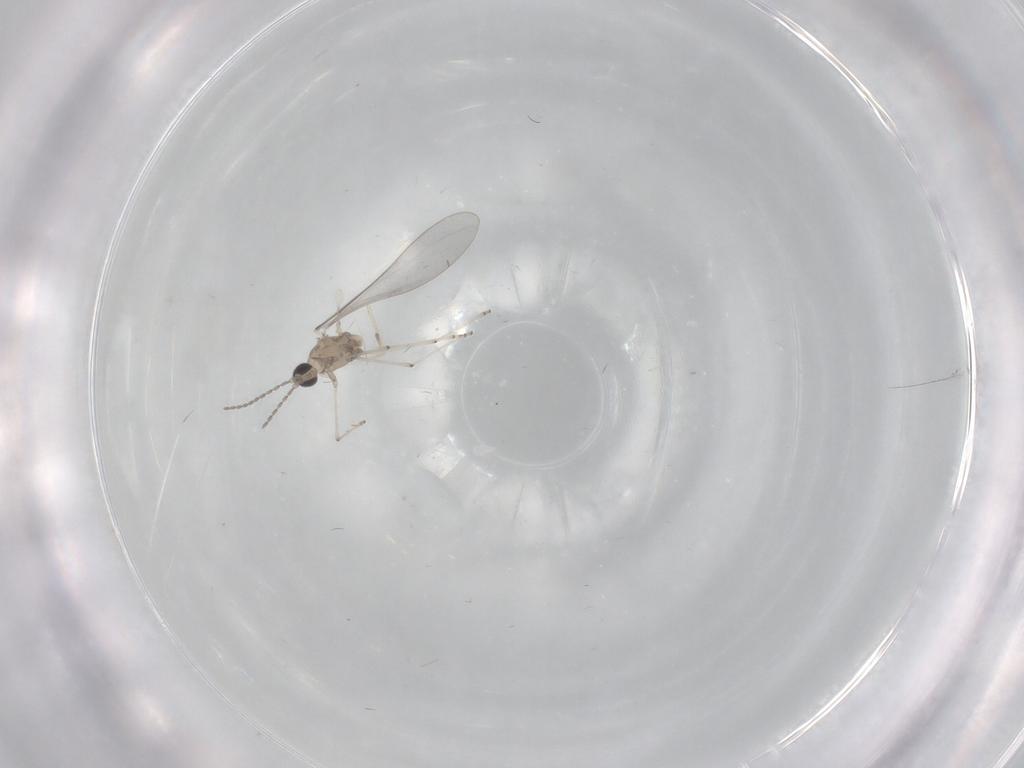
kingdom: Animalia
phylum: Arthropoda
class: Insecta
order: Diptera
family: Cecidomyiidae
